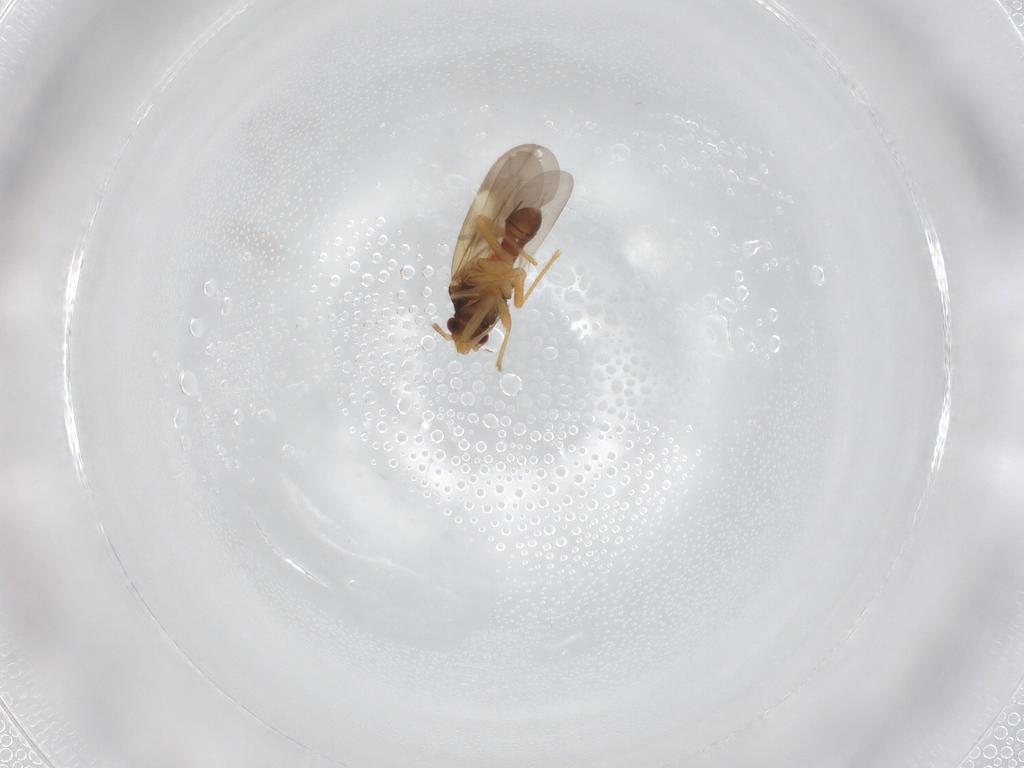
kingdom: Animalia
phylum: Arthropoda
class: Insecta
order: Hemiptera
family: Ceratocombidae
